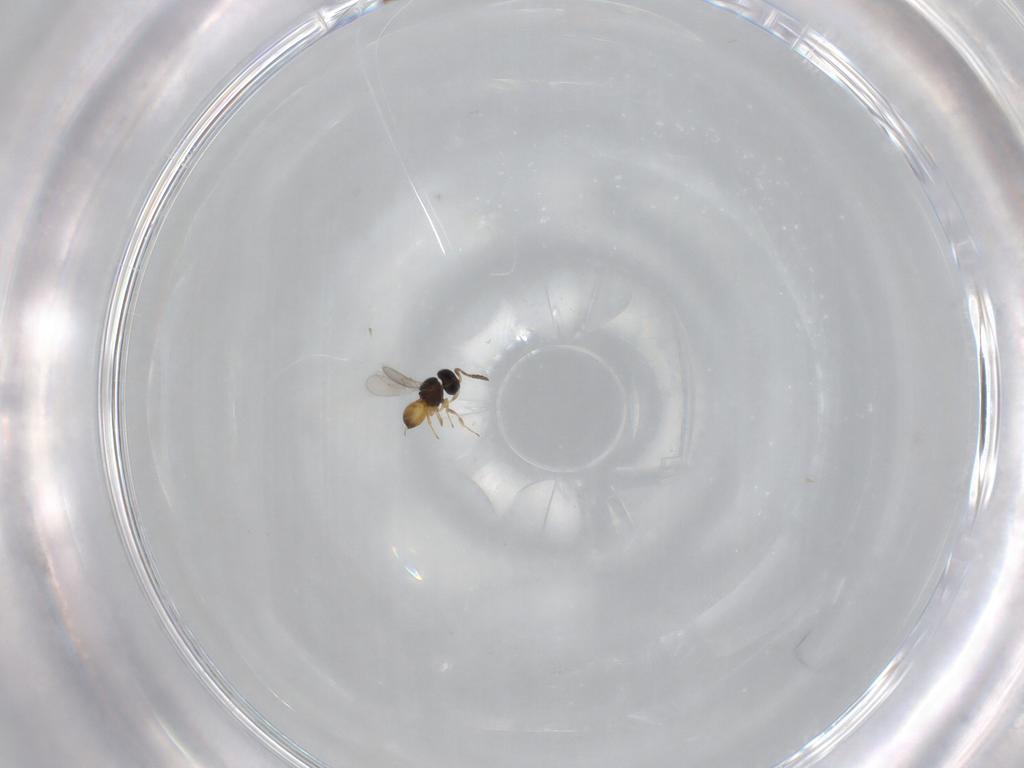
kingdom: Animalia
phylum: Arthropoda
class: Insecta
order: Hymenoptera
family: Scelionidae
